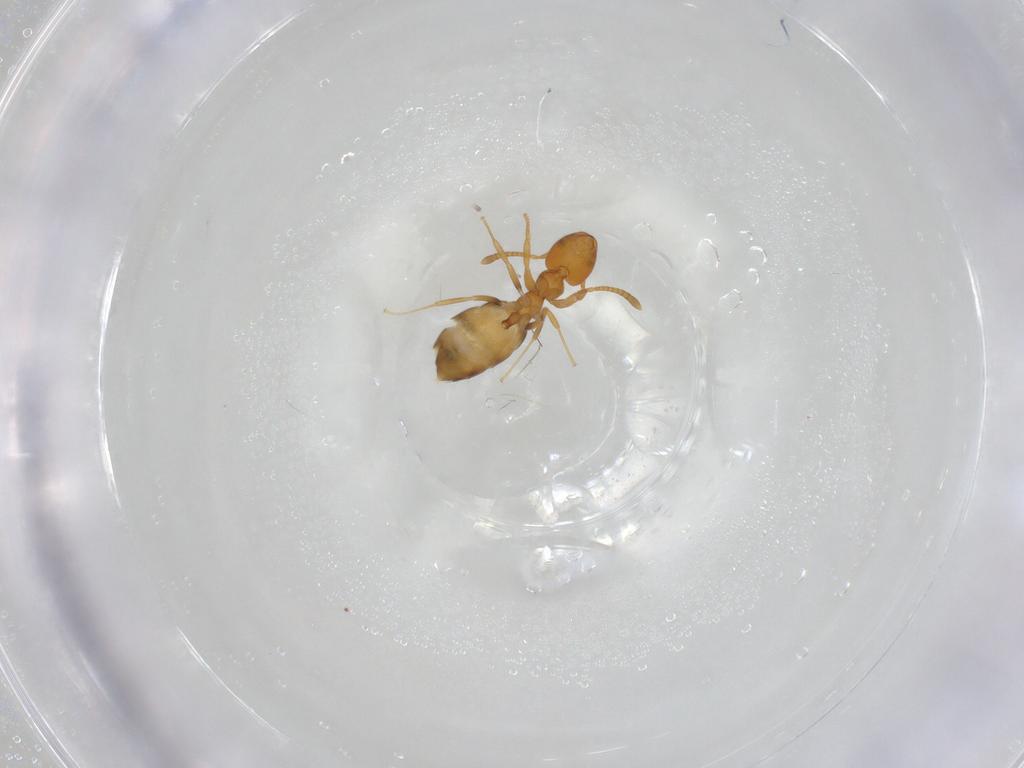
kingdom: Animalia
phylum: Arthropoda
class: Insecta
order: Hymenoptera
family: Formicidae
